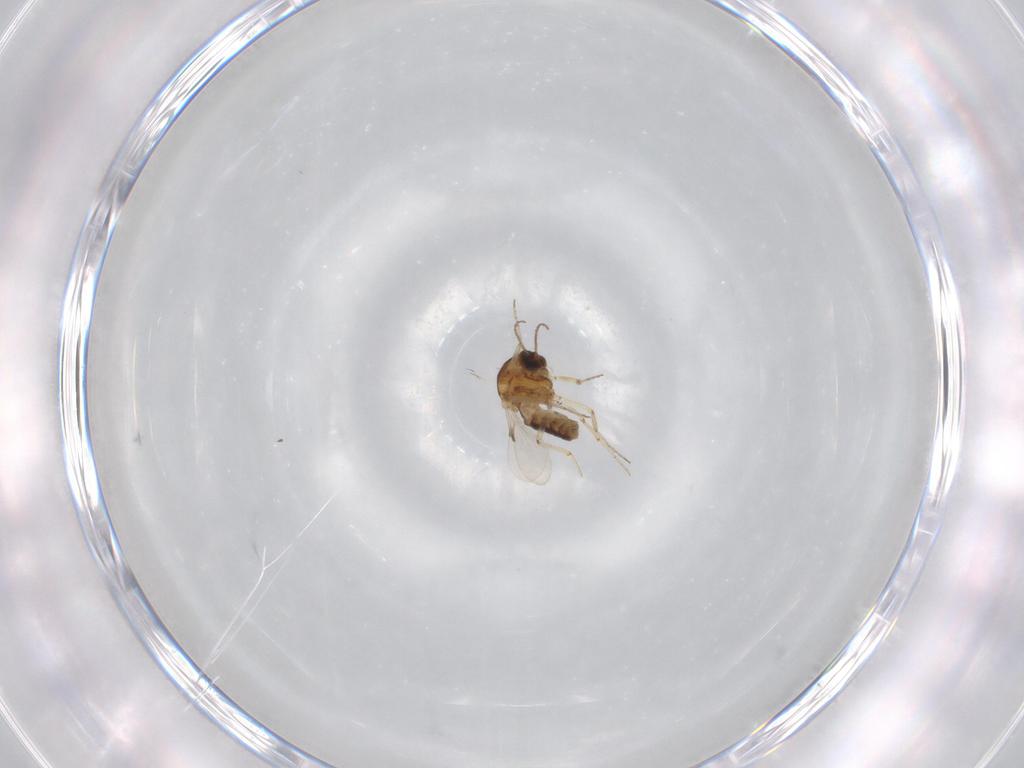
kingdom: Animalia
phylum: Arthropoda
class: Insecta
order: Diptera
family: Ceratopogonidae
